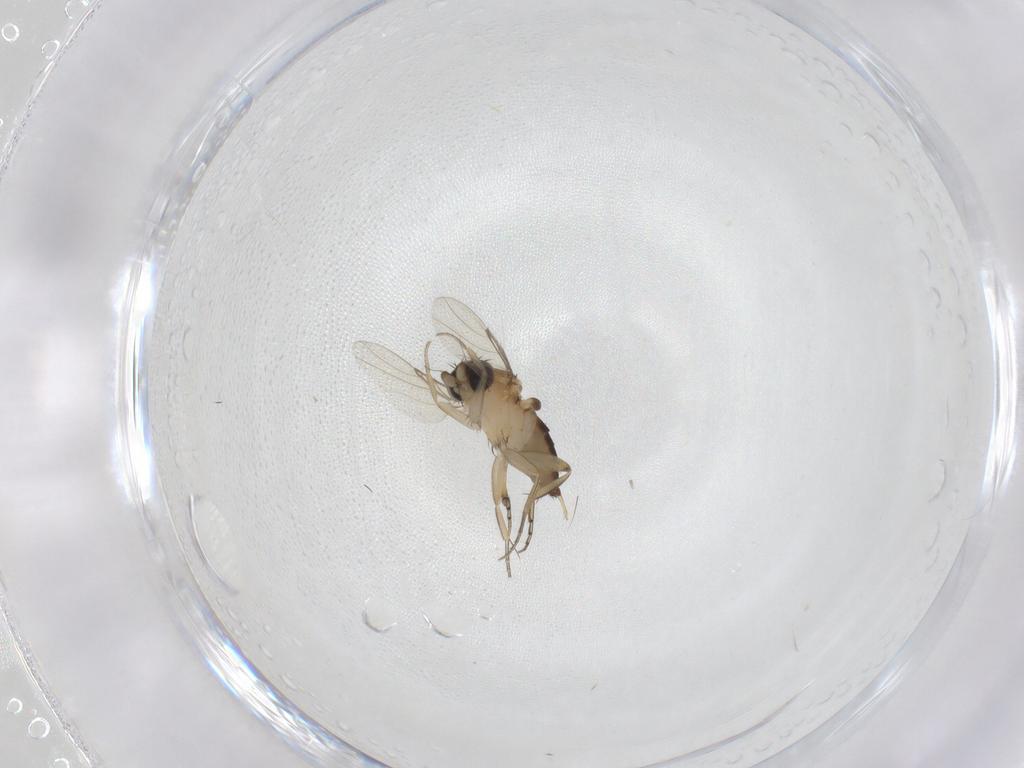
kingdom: Animalia
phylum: Arthropoda
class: Insecta
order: Diptera
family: Phoridae
